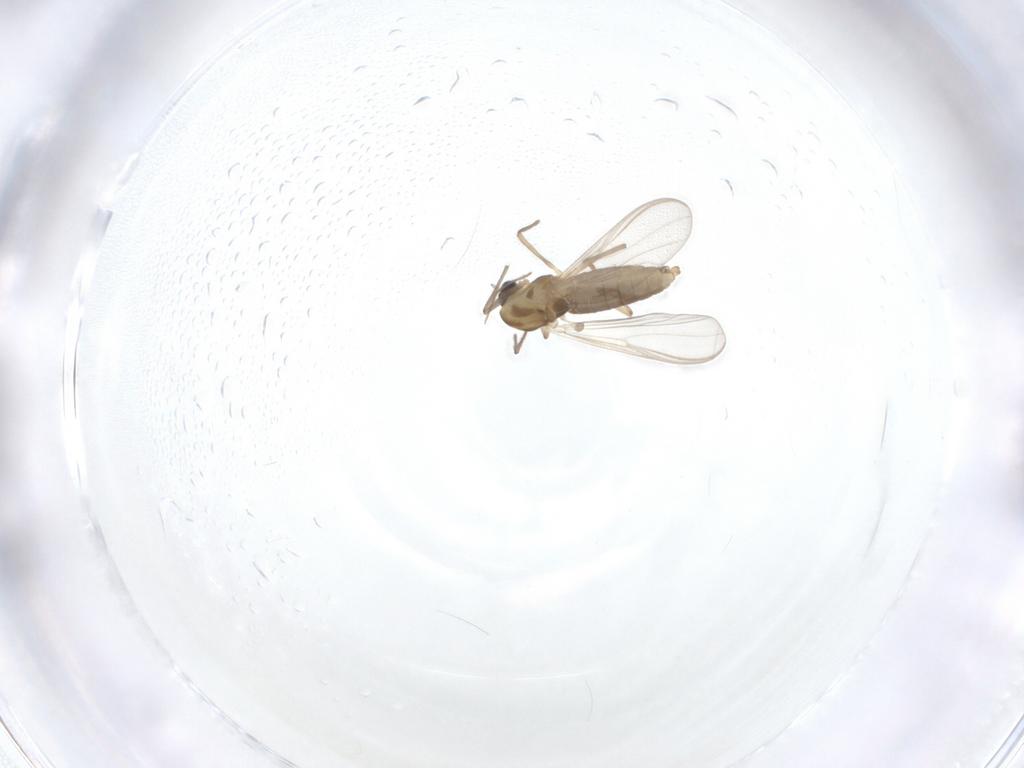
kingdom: Animalia
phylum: Arthropoda
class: Insecta
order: Diptera
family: Chironomidae
